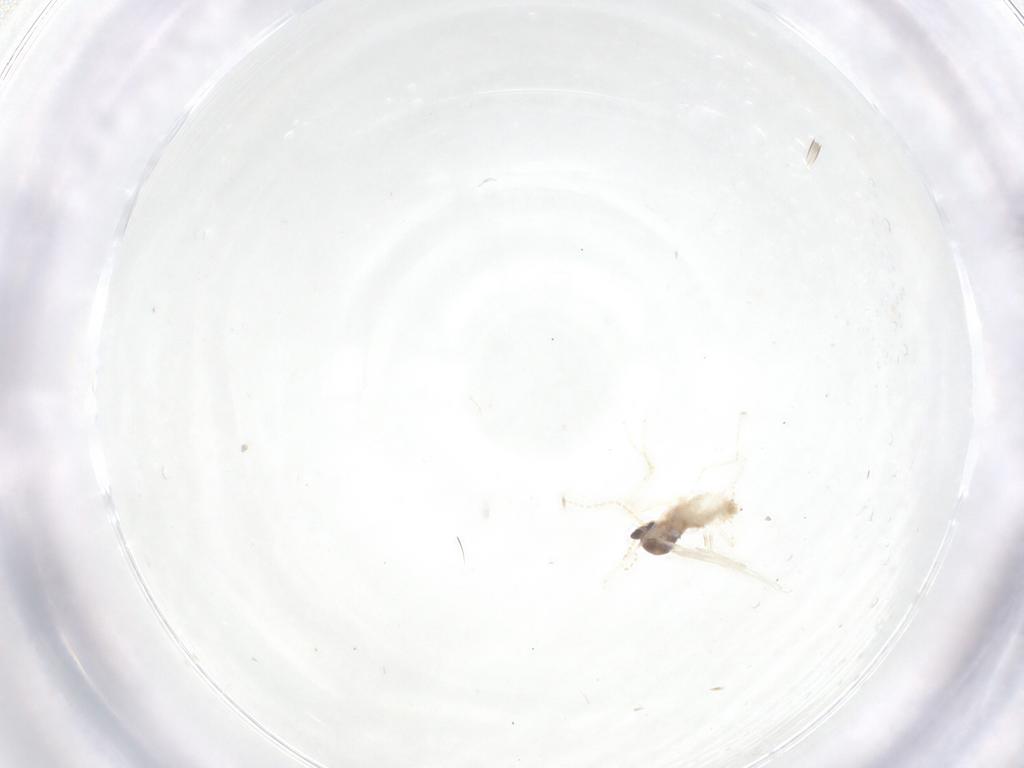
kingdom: Animalia
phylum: Arthropoda
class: Insecta
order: Diptera
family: Cecidomyiidae
